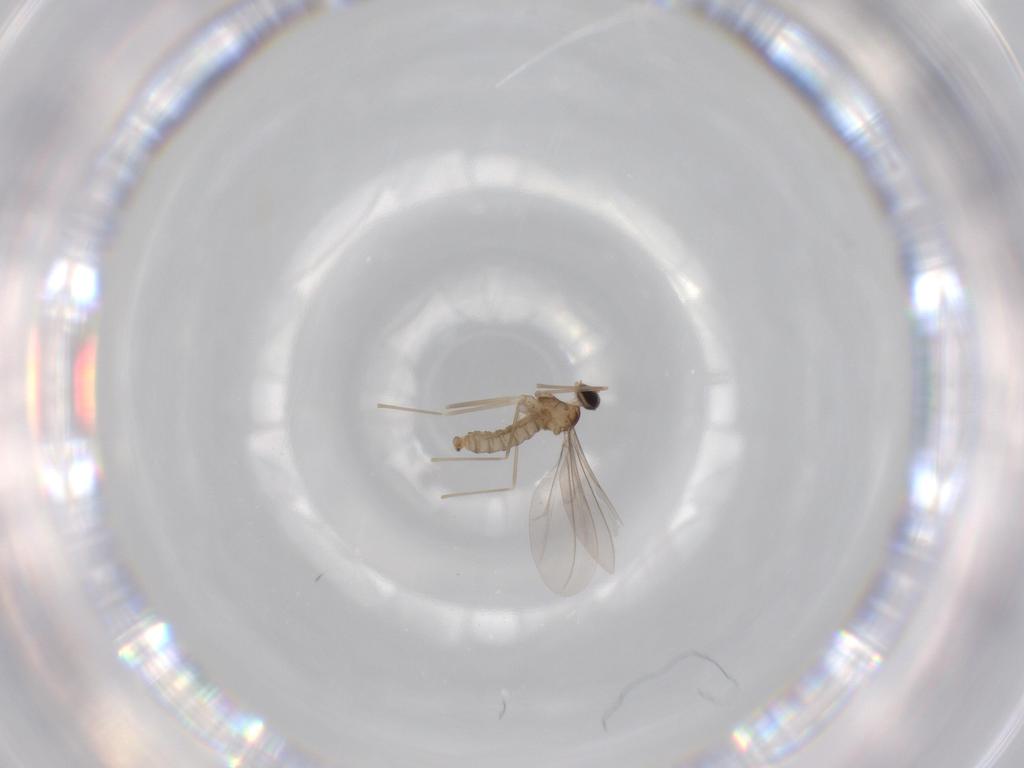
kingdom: Animalia
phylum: Arthropoda
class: Insecta
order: Diptera
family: Cecidomyiidae
